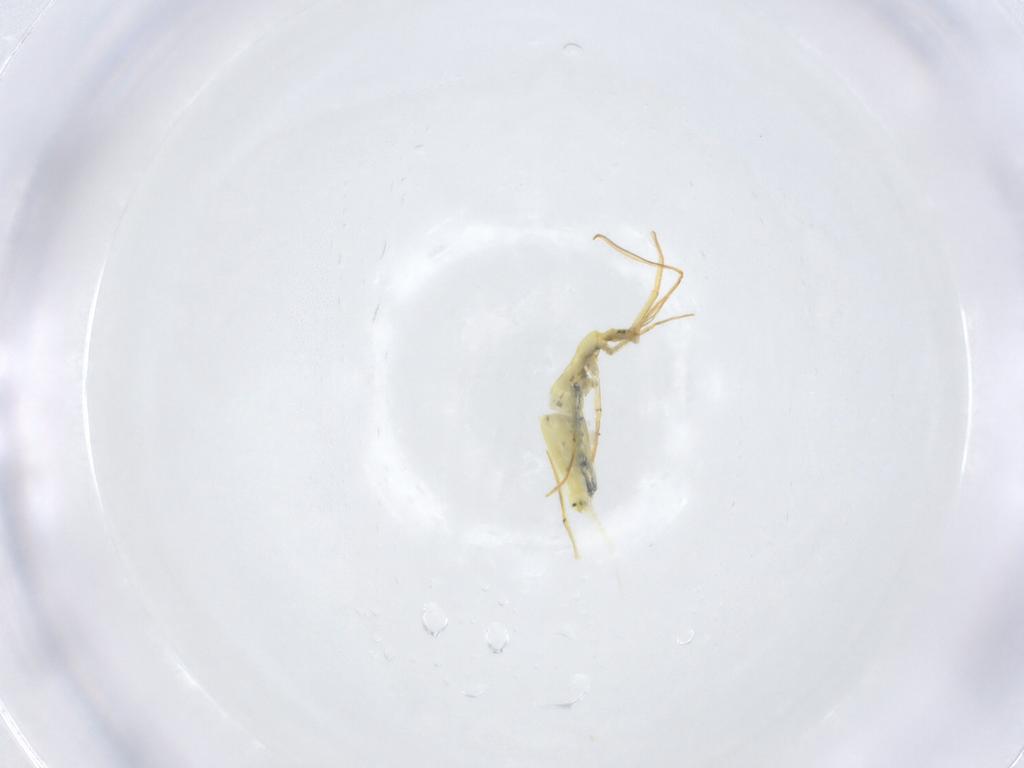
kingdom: Animalia
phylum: Arthropoda
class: Collembola
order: Entomobryomorpha
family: Entomobryidae
